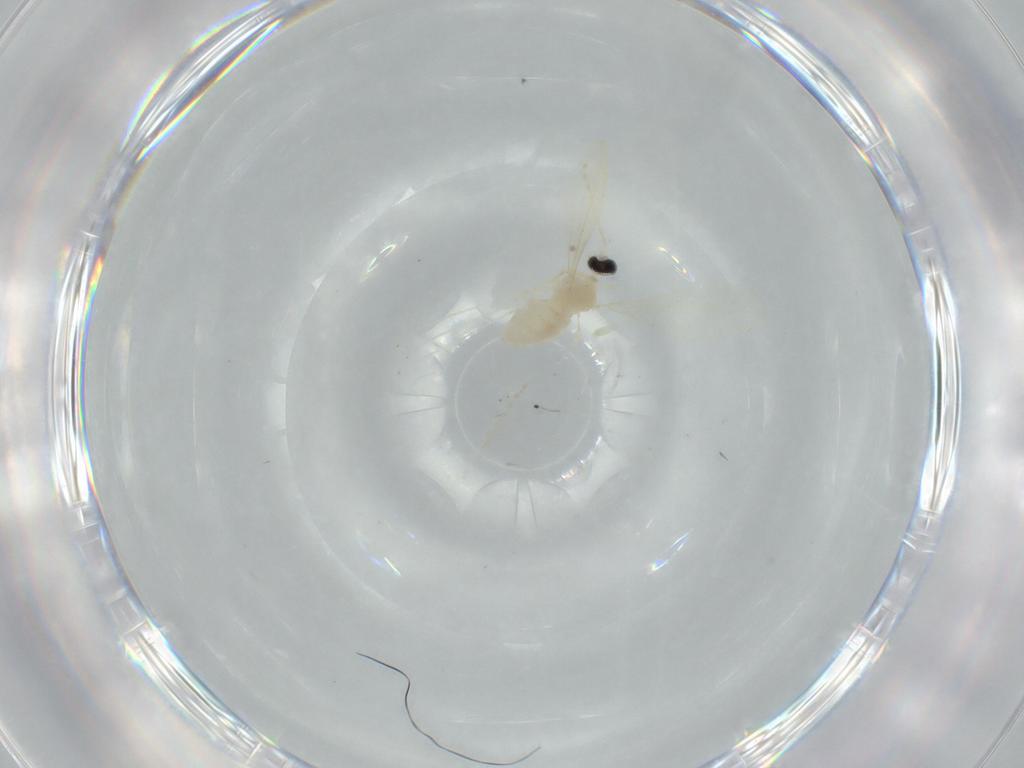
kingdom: Animalia
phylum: Arthropoda
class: Insecta
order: Diptera
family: Cecidomyiidae
